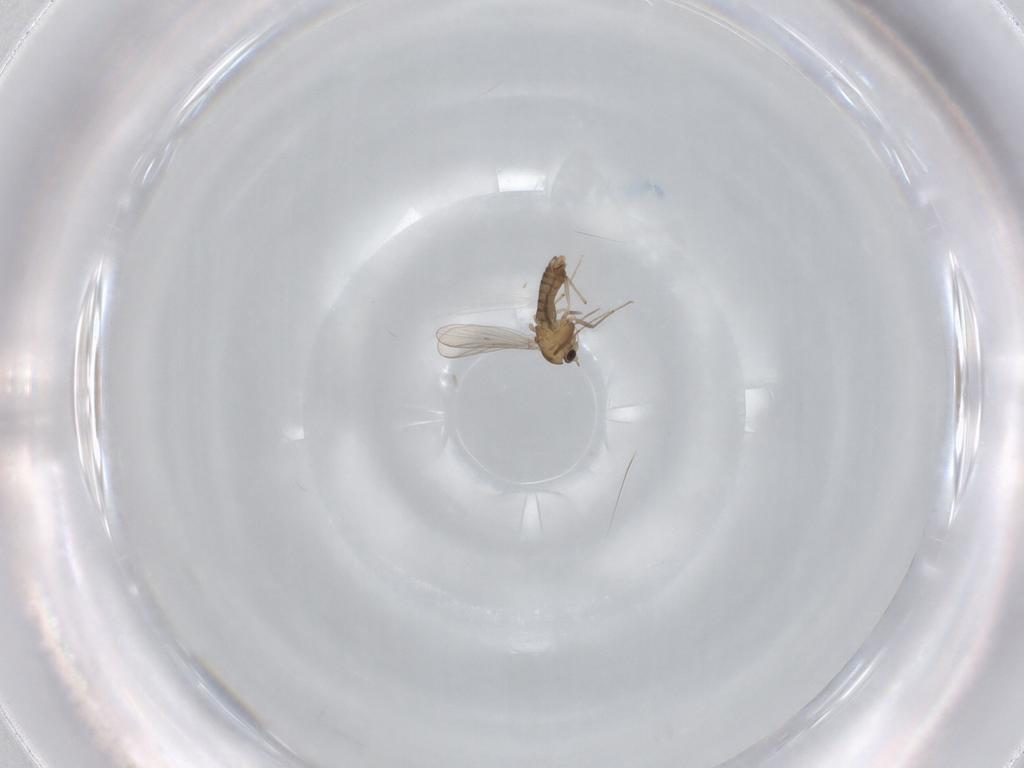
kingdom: Animalia
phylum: Arthropoda
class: Insecta
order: Diptera
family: Chironomidae
